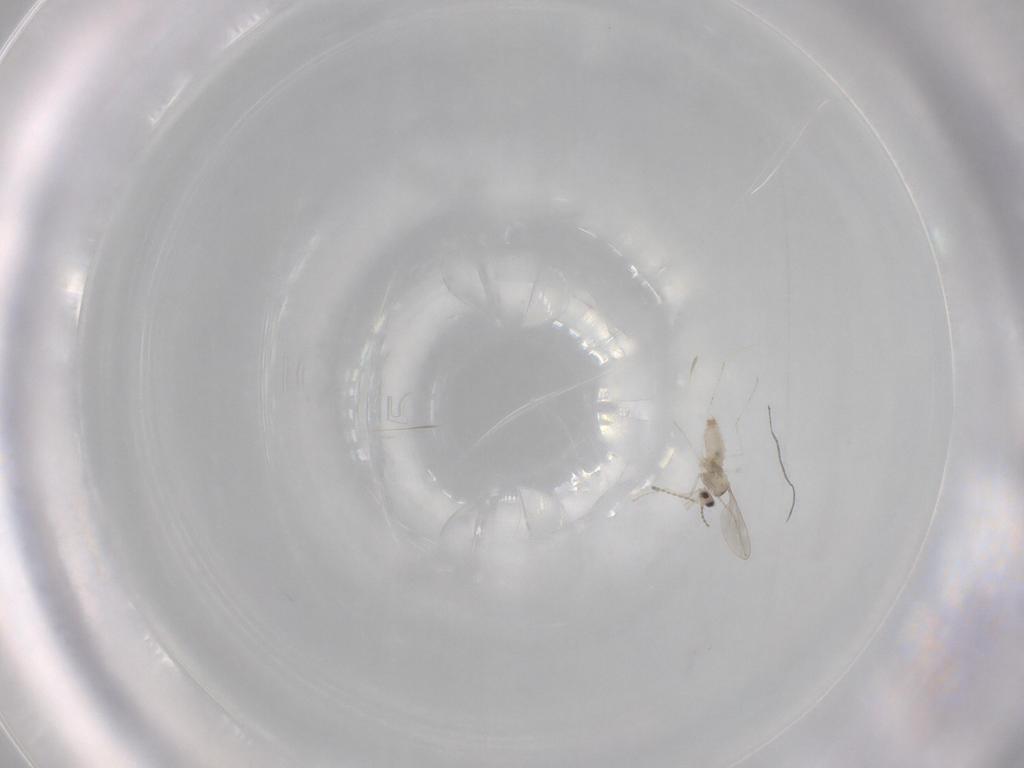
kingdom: Animalia
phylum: Arthropoda
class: Insecta
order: Diptera
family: Cecidomyiidae
